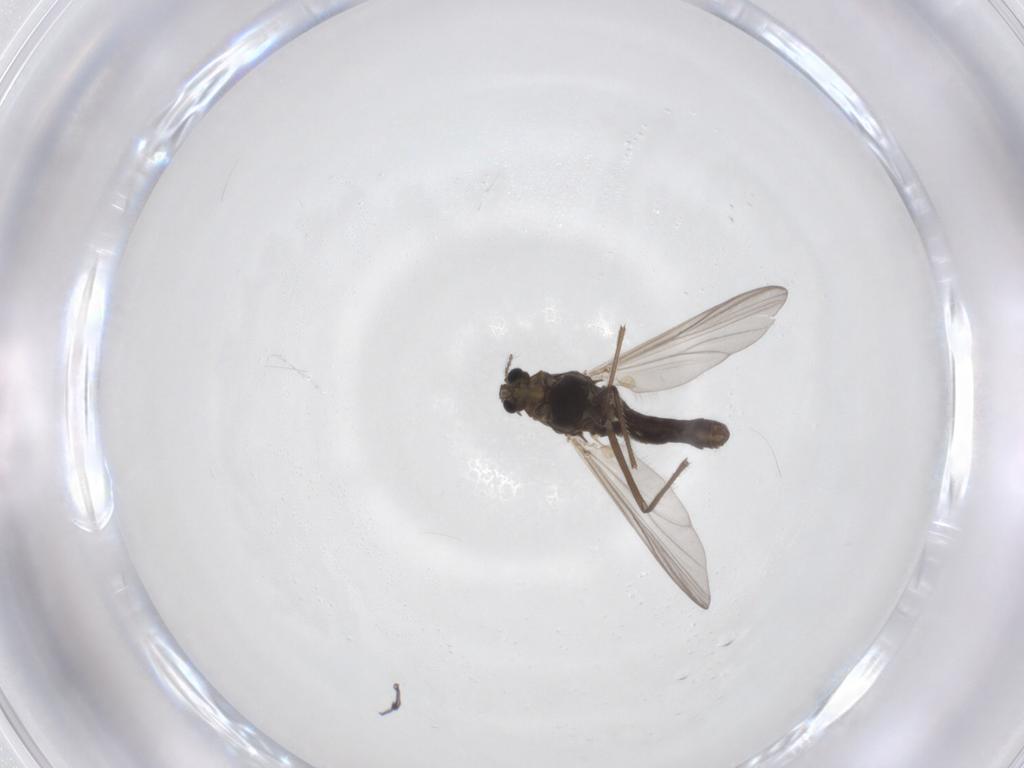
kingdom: Animalia
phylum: Arthropoda
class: Insecta
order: Diptera
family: Chironomidae
